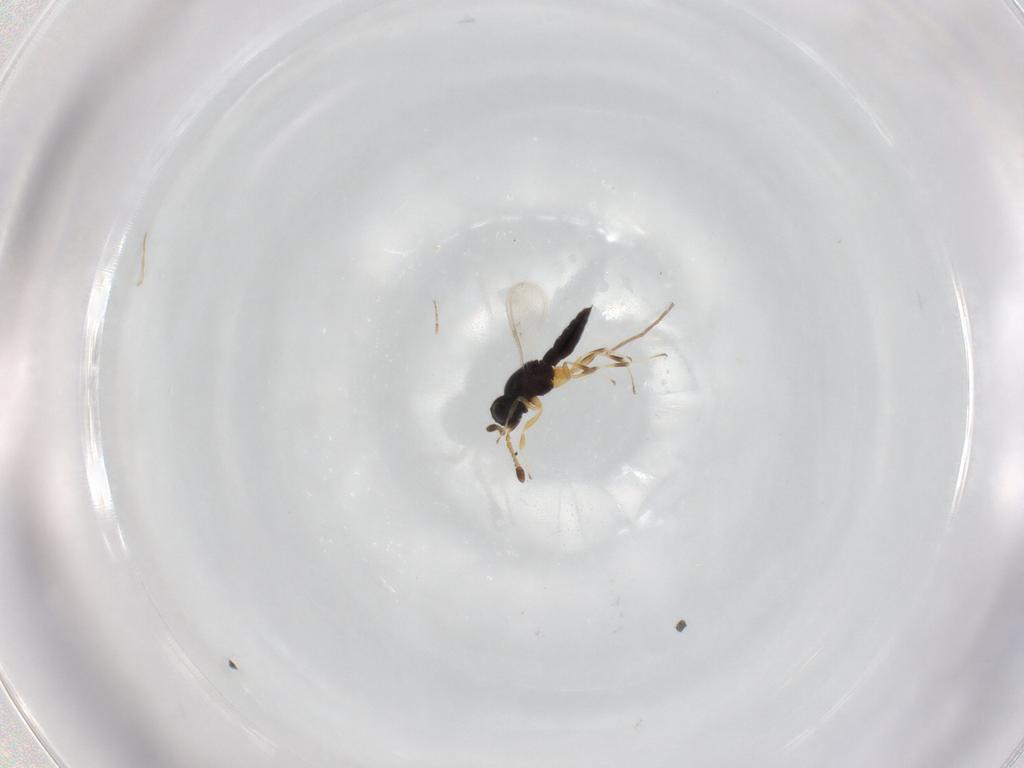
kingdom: Animalia
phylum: Arthropoda
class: Insecta
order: Hymenoptera
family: Scelionidae
